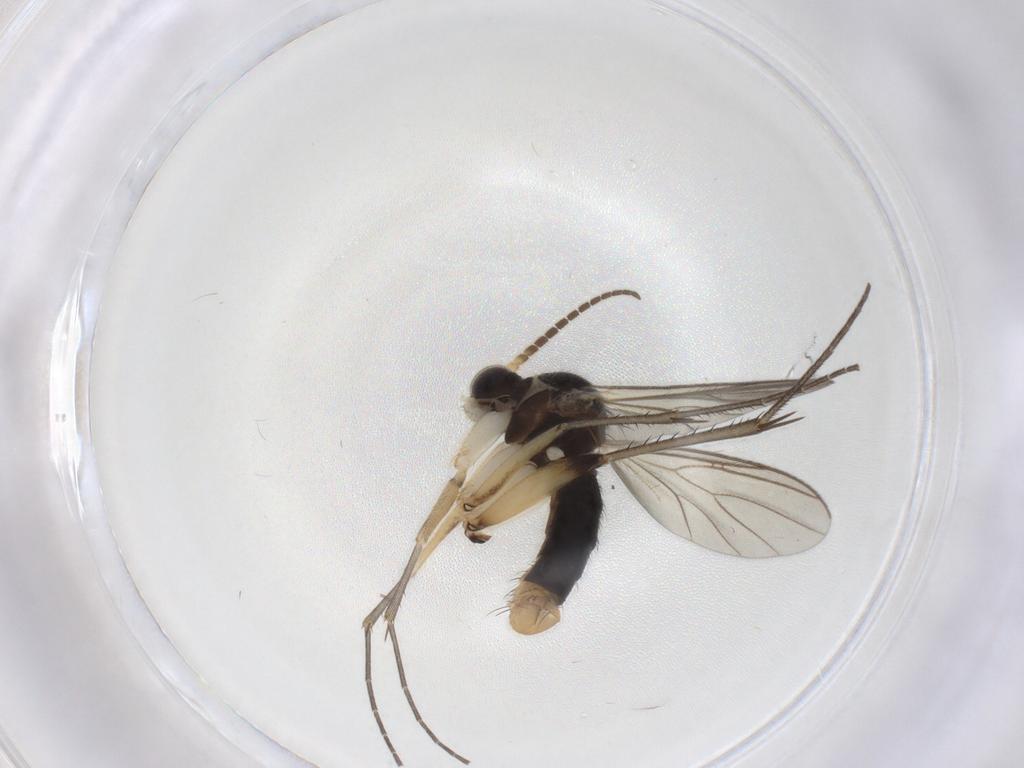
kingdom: Animalia
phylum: Arthropoda
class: Insecta
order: Diptera
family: Mycetophilidae
